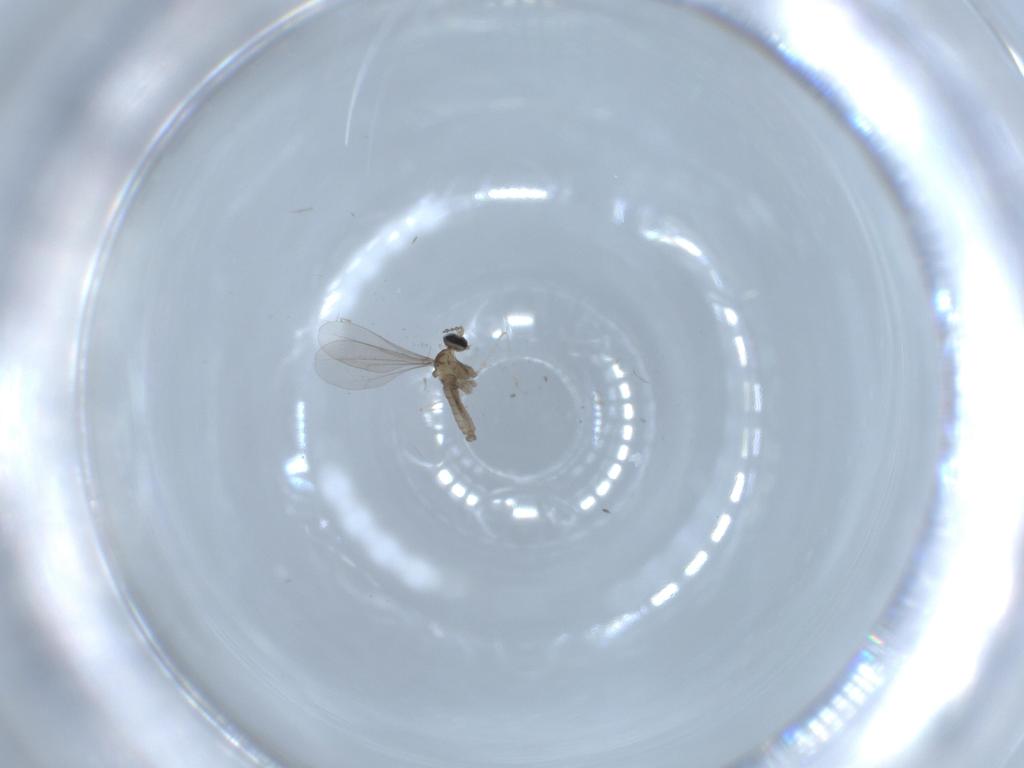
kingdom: Animalia
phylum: Arthropoda
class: Insecta
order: Diptera
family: Cecidomyiidae
